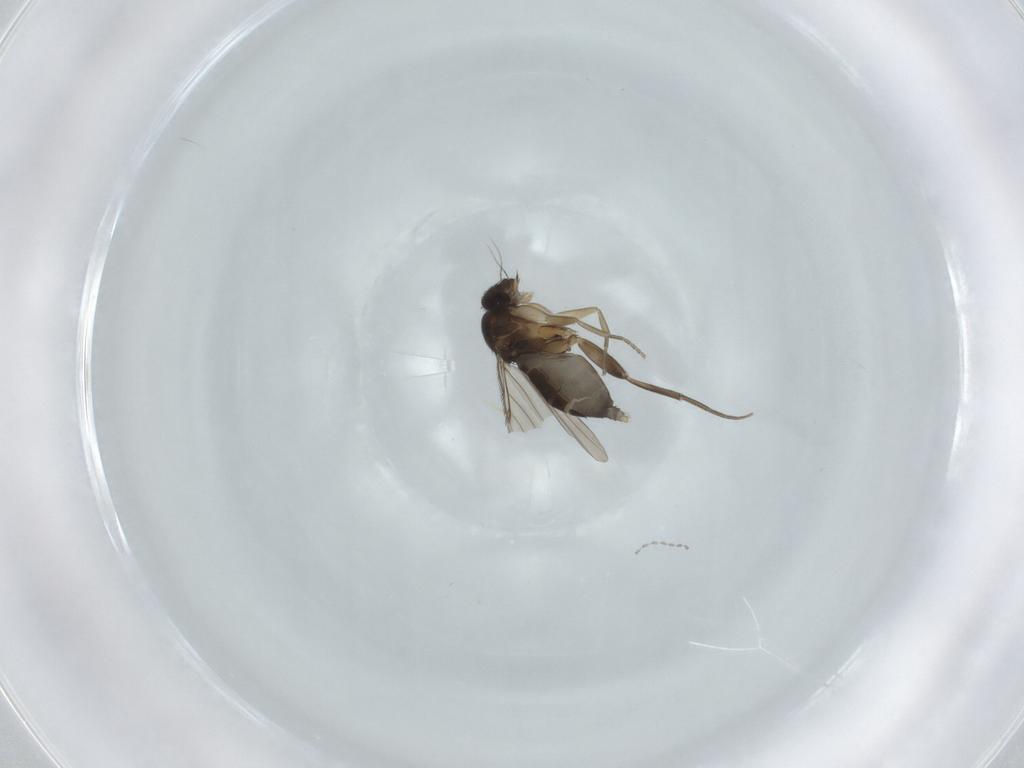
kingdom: Animalia
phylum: Arthropoda
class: Insecta
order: Diptera
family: Phoridae
